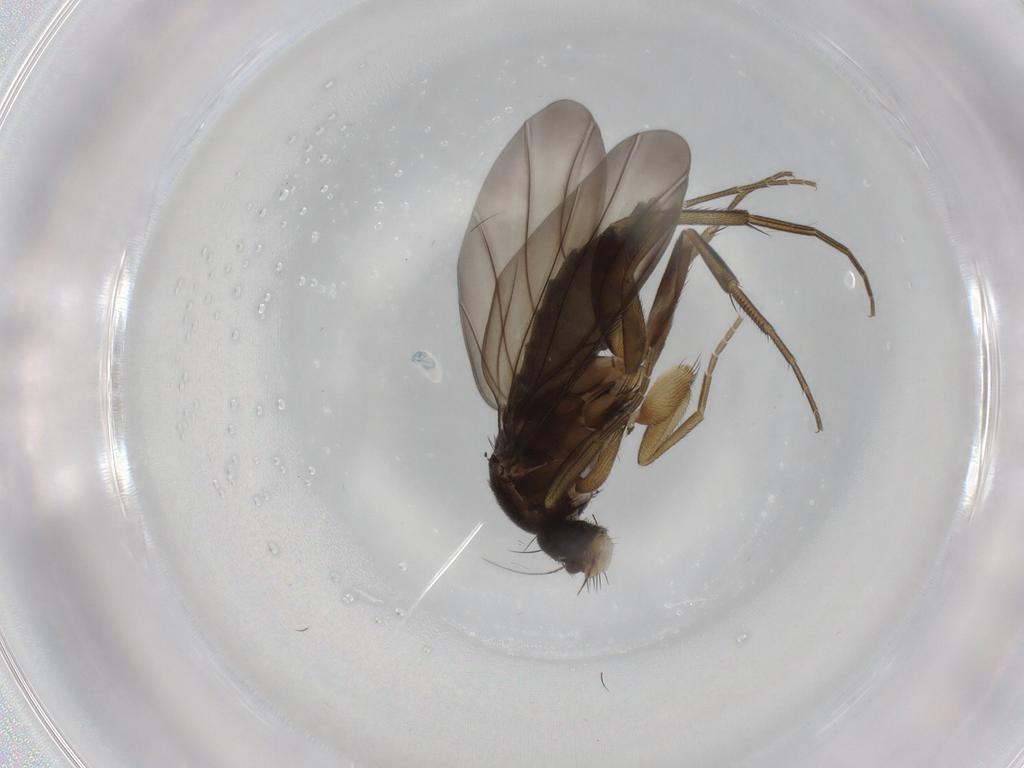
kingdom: Animalia
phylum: Arthropoda
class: Insecta
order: Diptera
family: Phoridae
